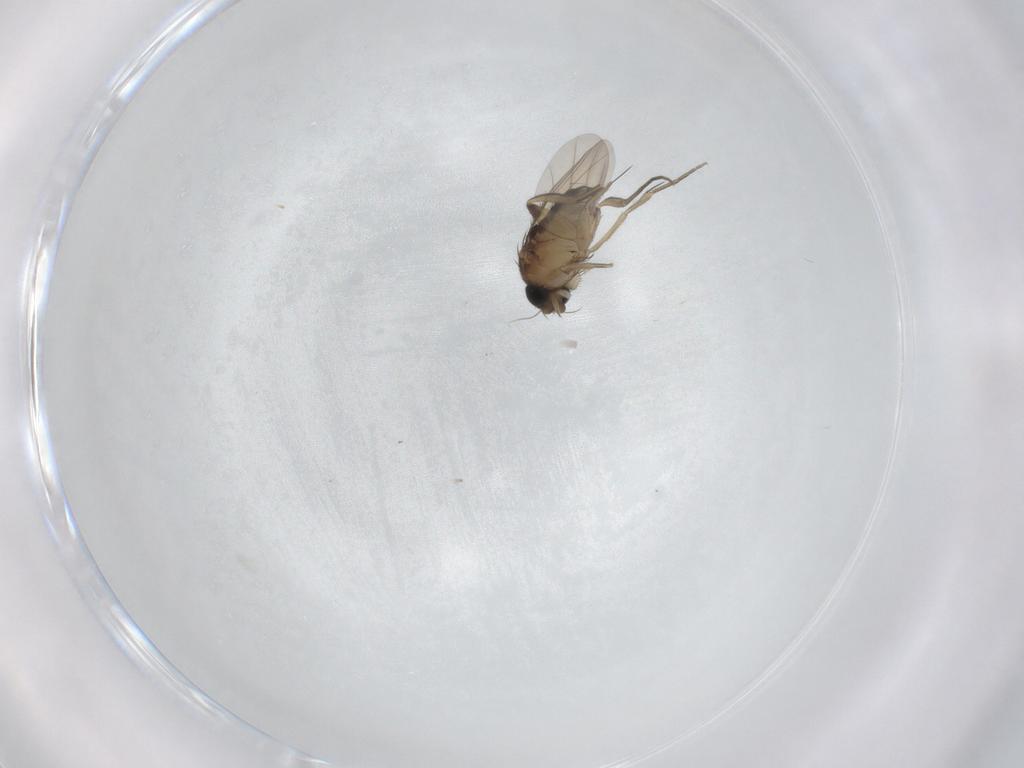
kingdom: Animalia
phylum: Arthropoda
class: Insecta
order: Diptera
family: Phoridae
